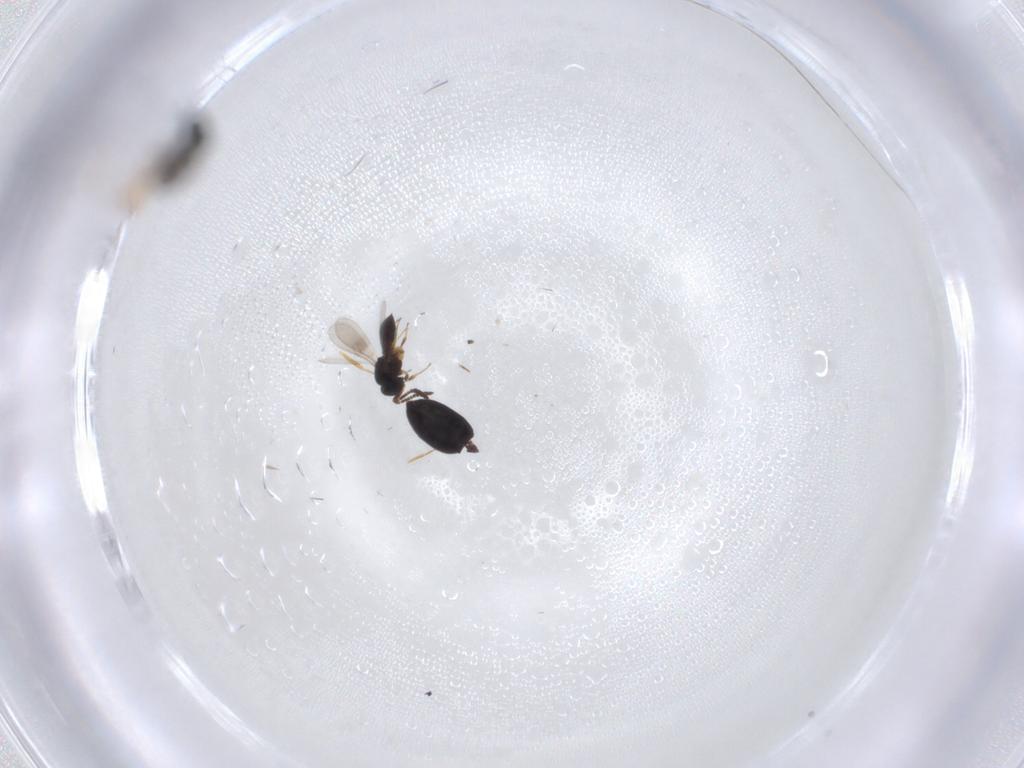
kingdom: Animalia
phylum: Arthropoda
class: Insecta
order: Hymenoptera
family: Scelionidae
